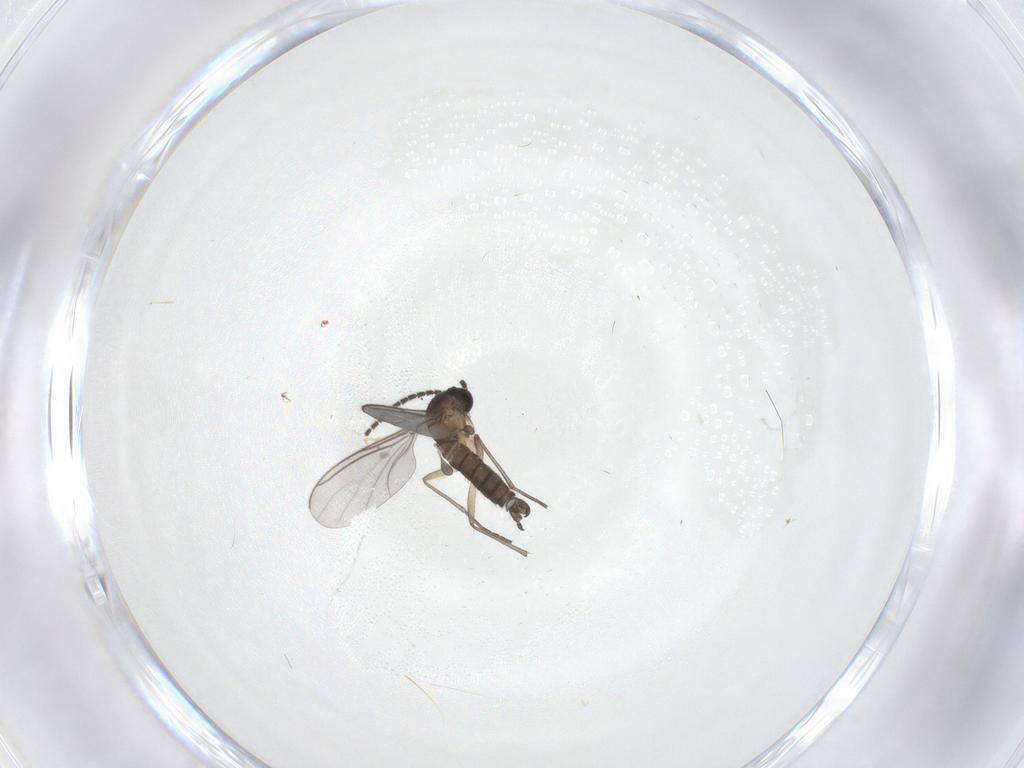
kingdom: Animalia
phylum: Arthropoda
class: Insecta
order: Diptera
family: Sciaridae
